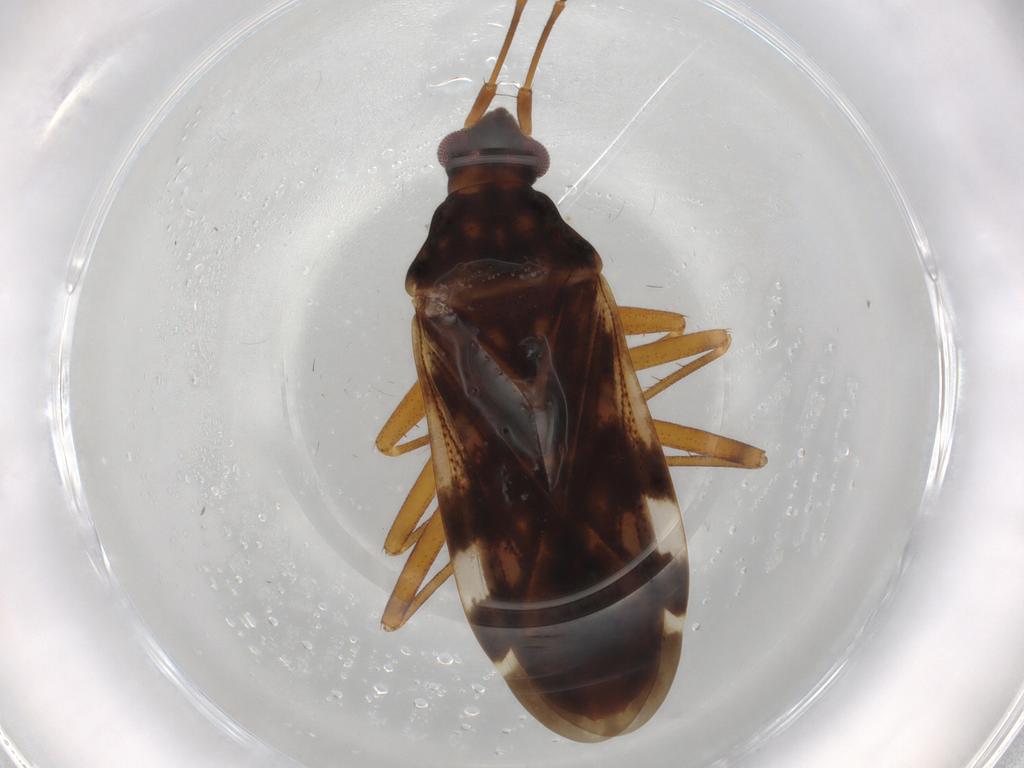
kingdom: Animalia
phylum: Arthropoda
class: Insecta
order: Hemiptera
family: Rhyparochromidae
